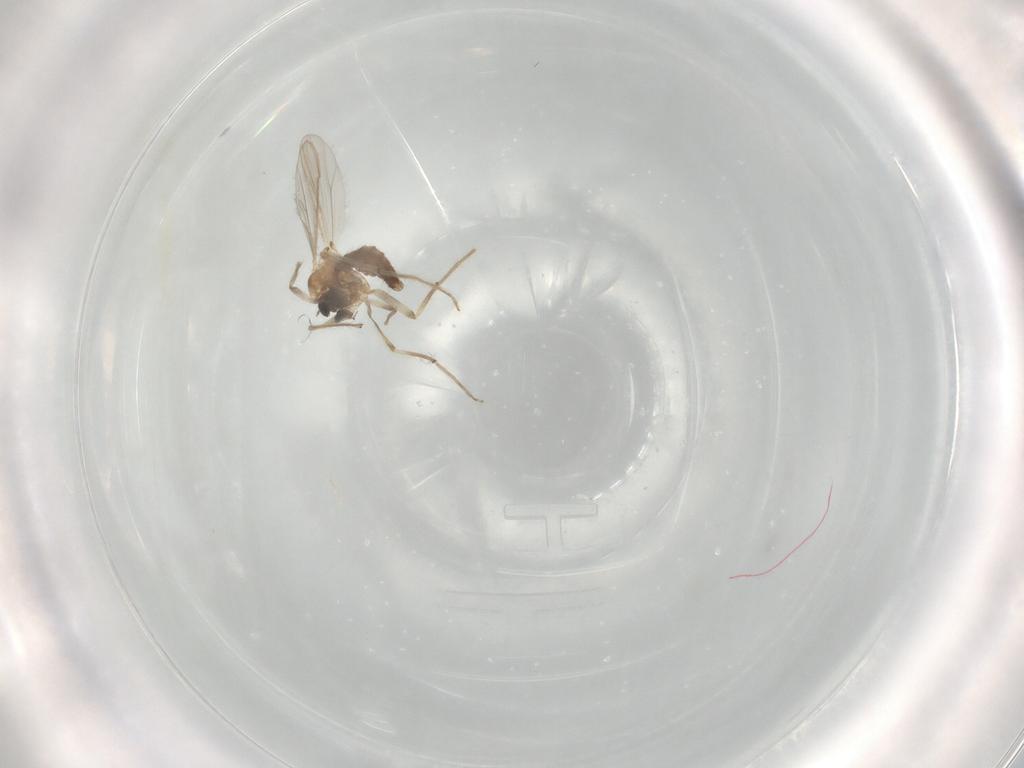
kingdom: Animalia
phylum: Arthropoda
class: Insecta
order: Diptera
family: Chironomidae
